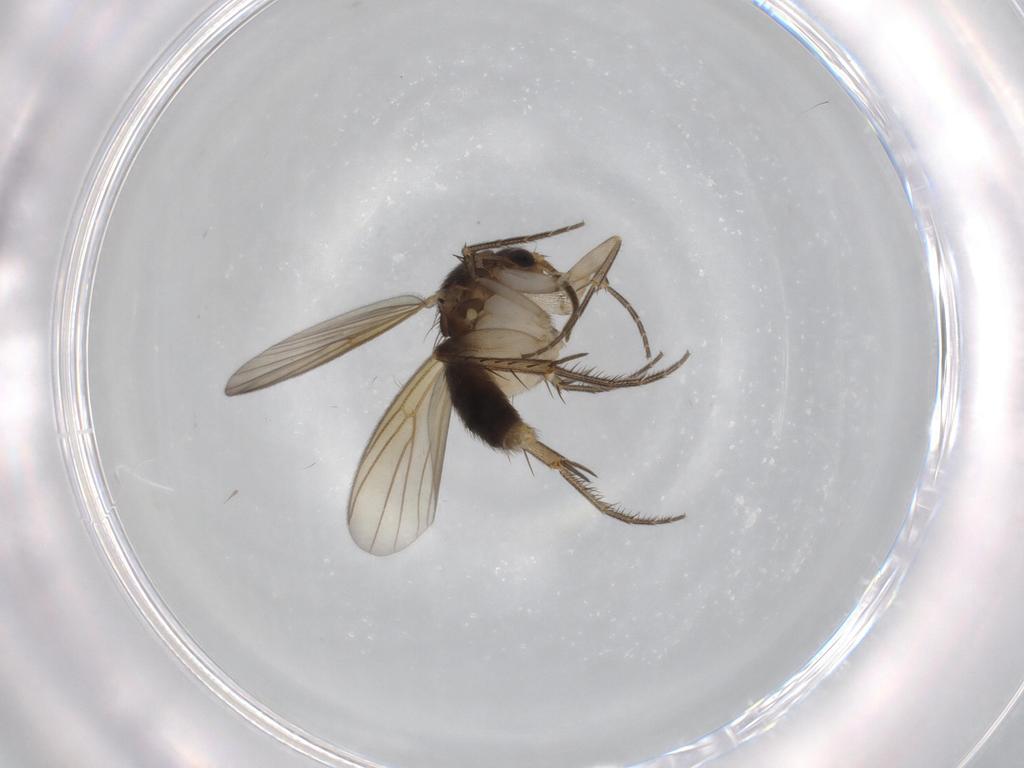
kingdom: Animalia
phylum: Arthropoda
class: Insecta
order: Diptera
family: Mycetophilidae
